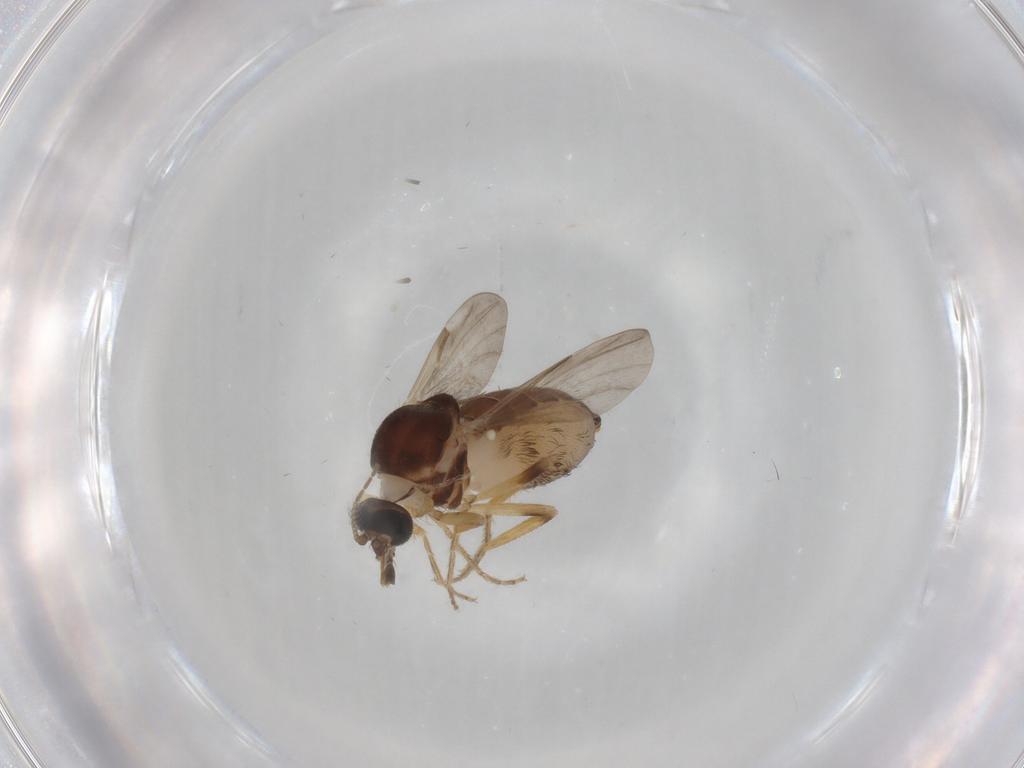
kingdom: Animalia
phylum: Arthropoda
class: Insecta
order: Diptera
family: Ceratopogonidae
